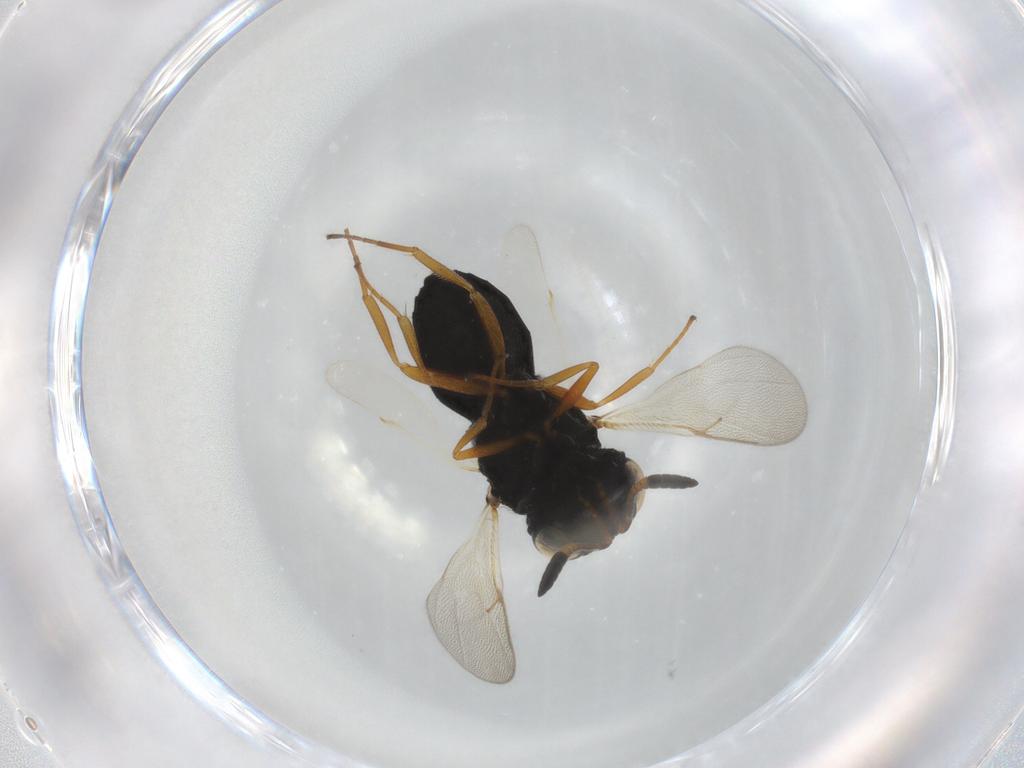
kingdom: Animalia
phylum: Arthropoda
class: Insecta
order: Hymenoptera
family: Scelionidae
